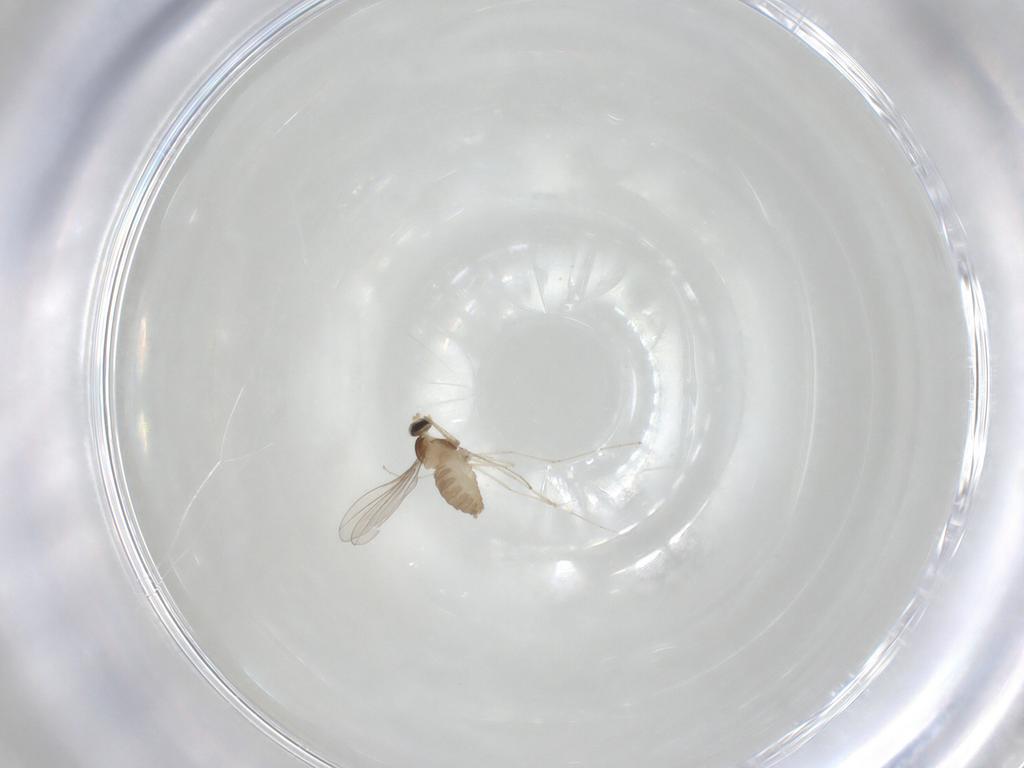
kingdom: Animalia
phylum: Arthropoda
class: Insecta
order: Diptera
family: Cecidomyiidae
